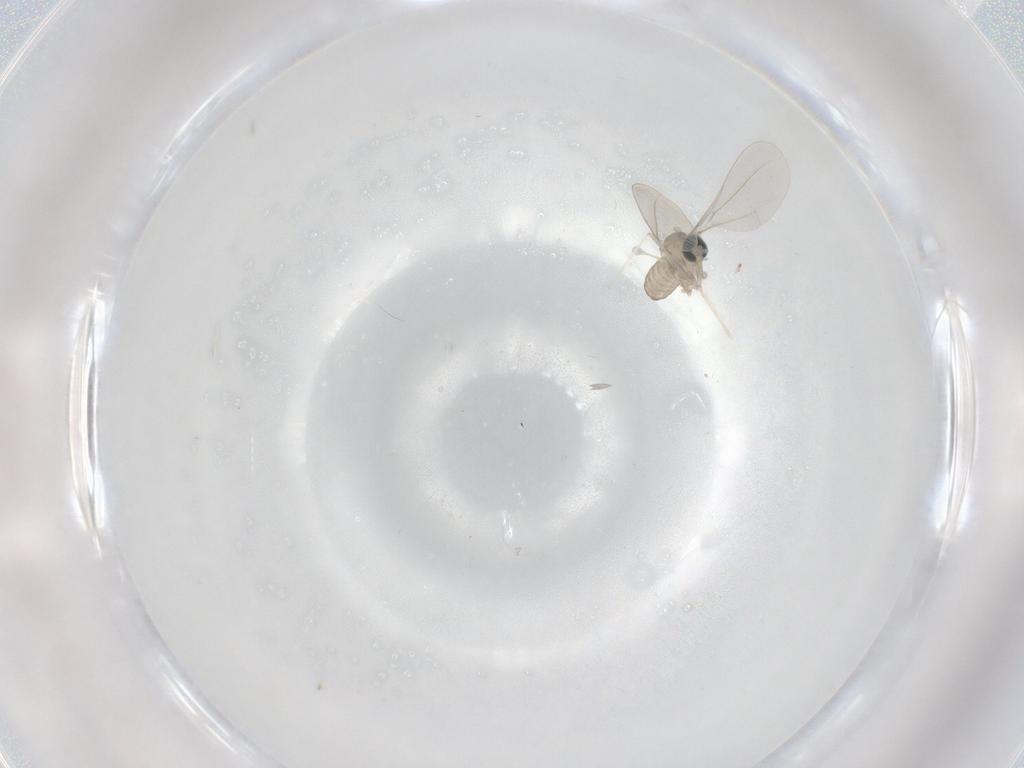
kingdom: Animalia
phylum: Arthropoda
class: Insecta
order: Diptera
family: Cecidomyiidae
